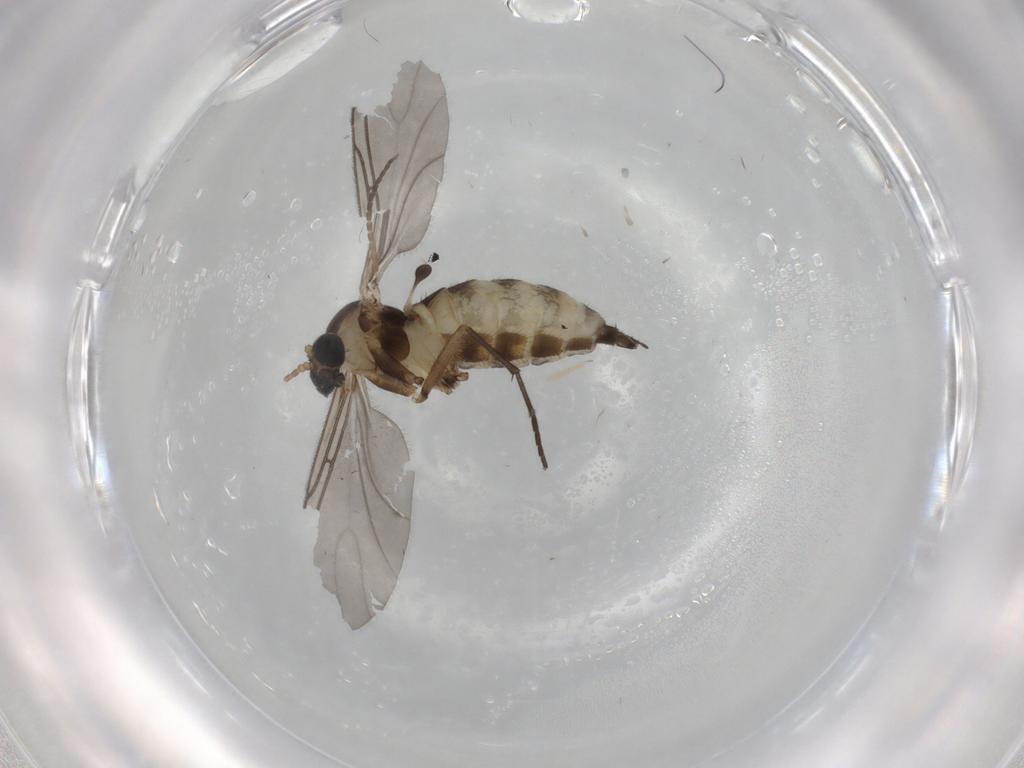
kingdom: Animalia
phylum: Arthropoda
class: Insecta
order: Diptera
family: Sciaridae
